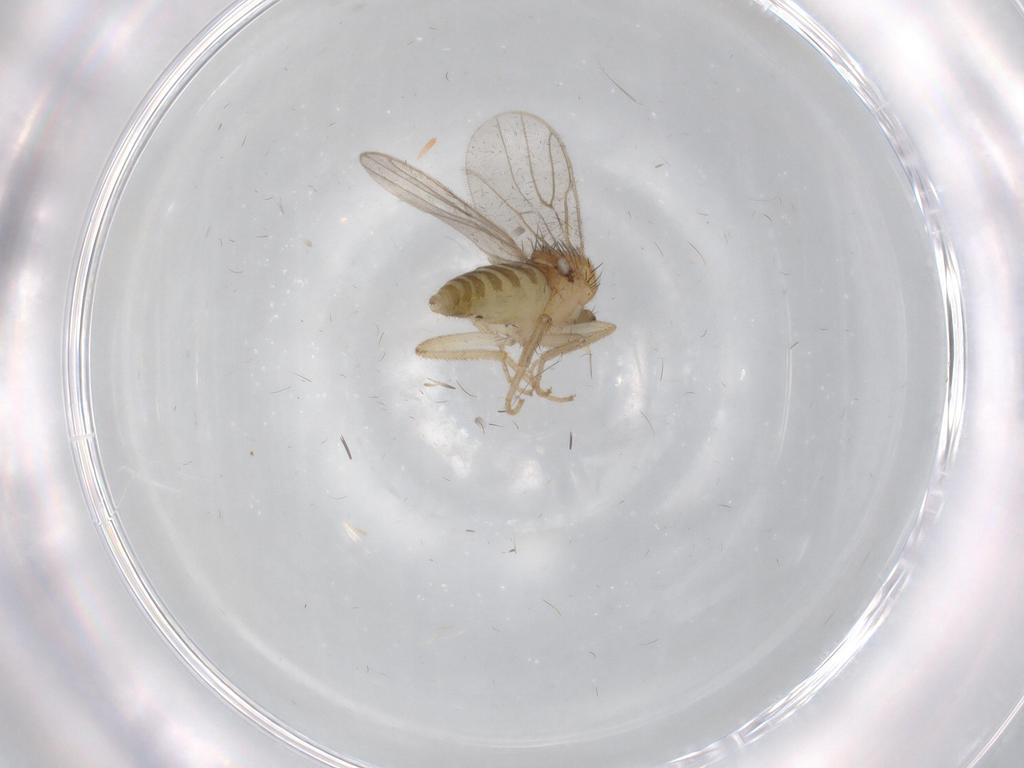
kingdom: Animalia
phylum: Arthropoda
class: Insecta
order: Diptera
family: Hybotidae
